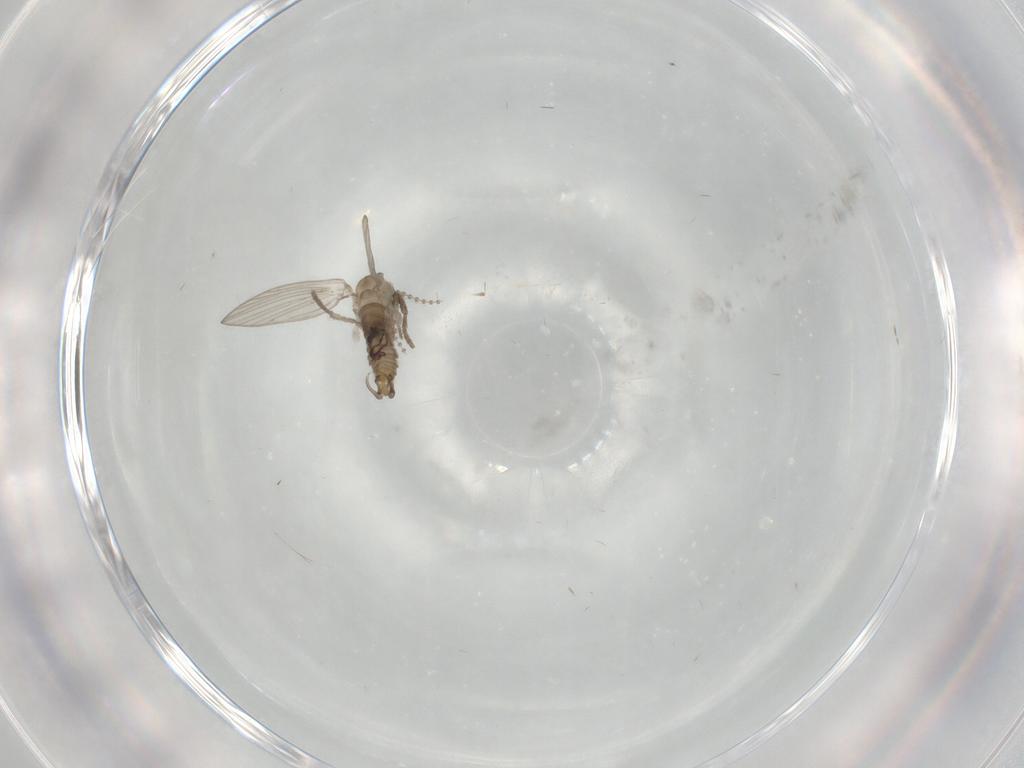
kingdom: Animalia
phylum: Arthropoda
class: Insecta
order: Diptera
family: Psychodidae
